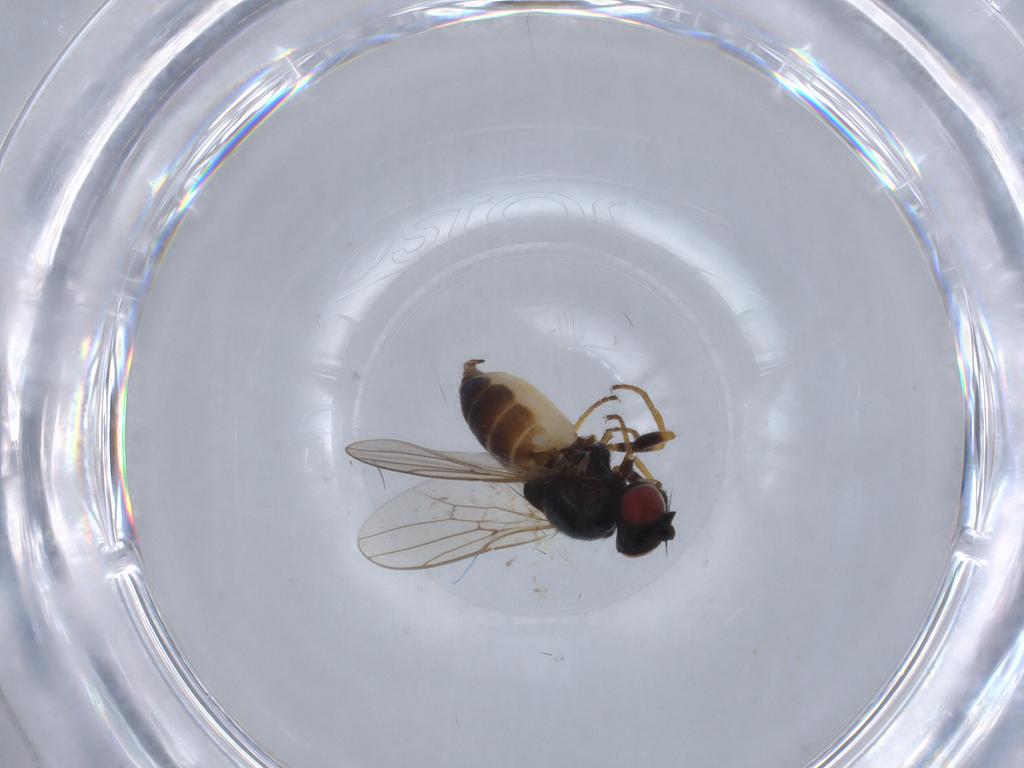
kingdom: Animalia
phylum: Arthropoda
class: Insecta
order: Diptera
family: Chloropidae
